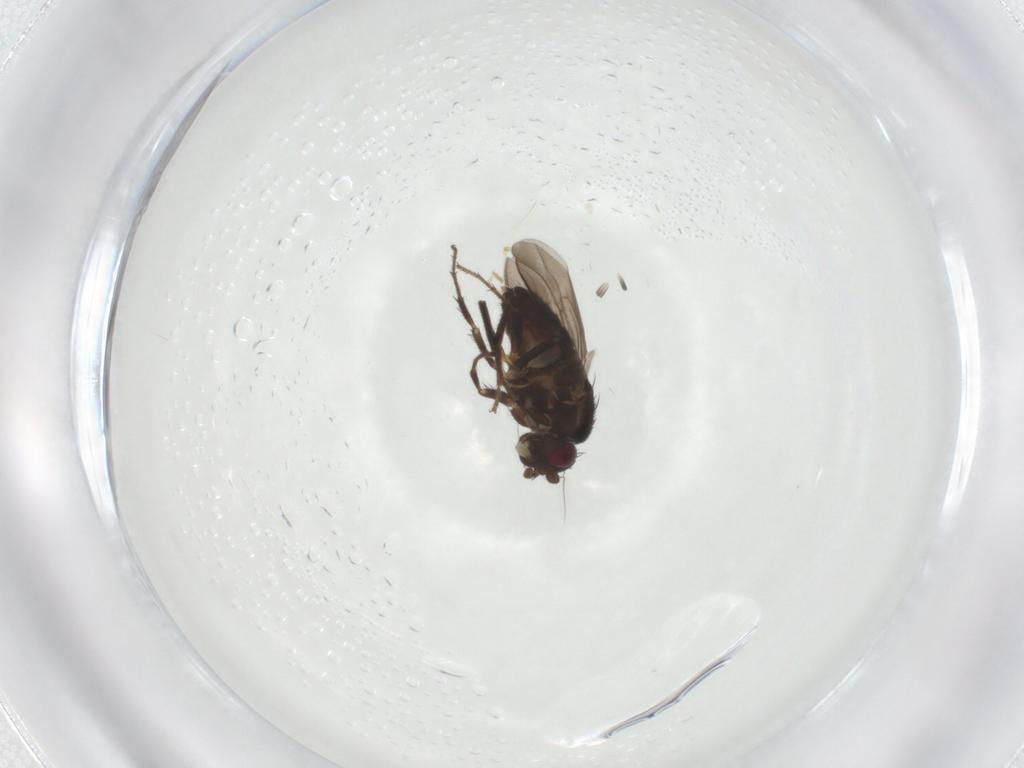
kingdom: Animalia
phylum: Arthropoda
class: Insecta
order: Diptera
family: Sphaeroceridae
